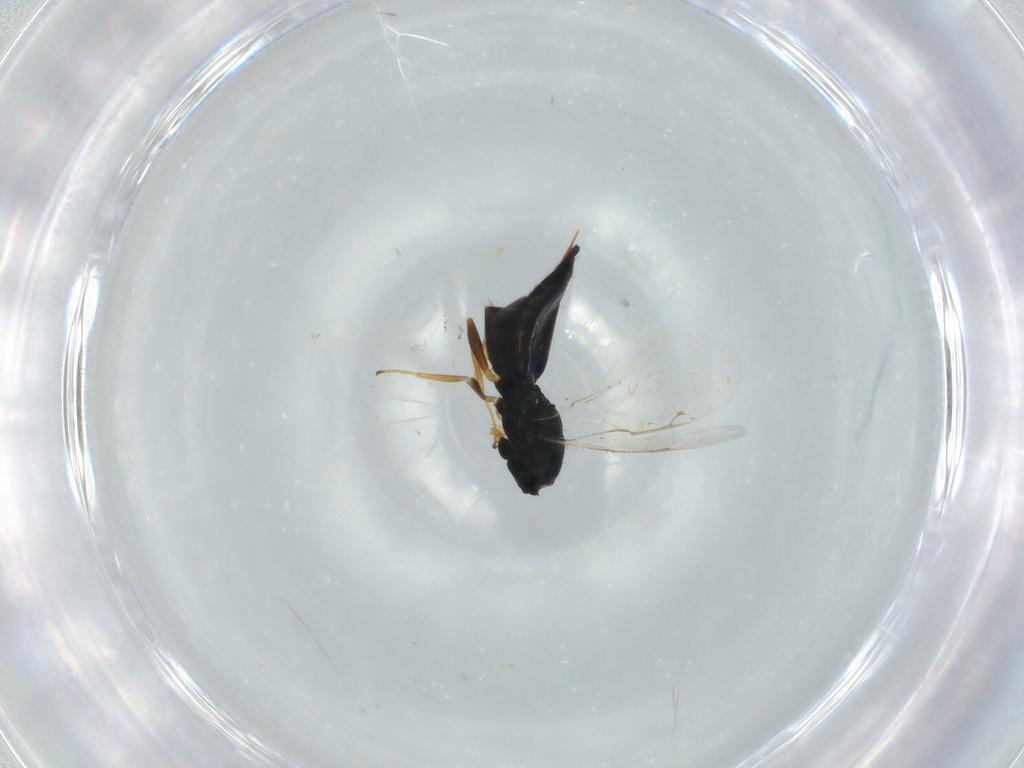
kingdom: Animalia
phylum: Arthropoda
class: Insecta
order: Hymenoptera
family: Pteromalidae
